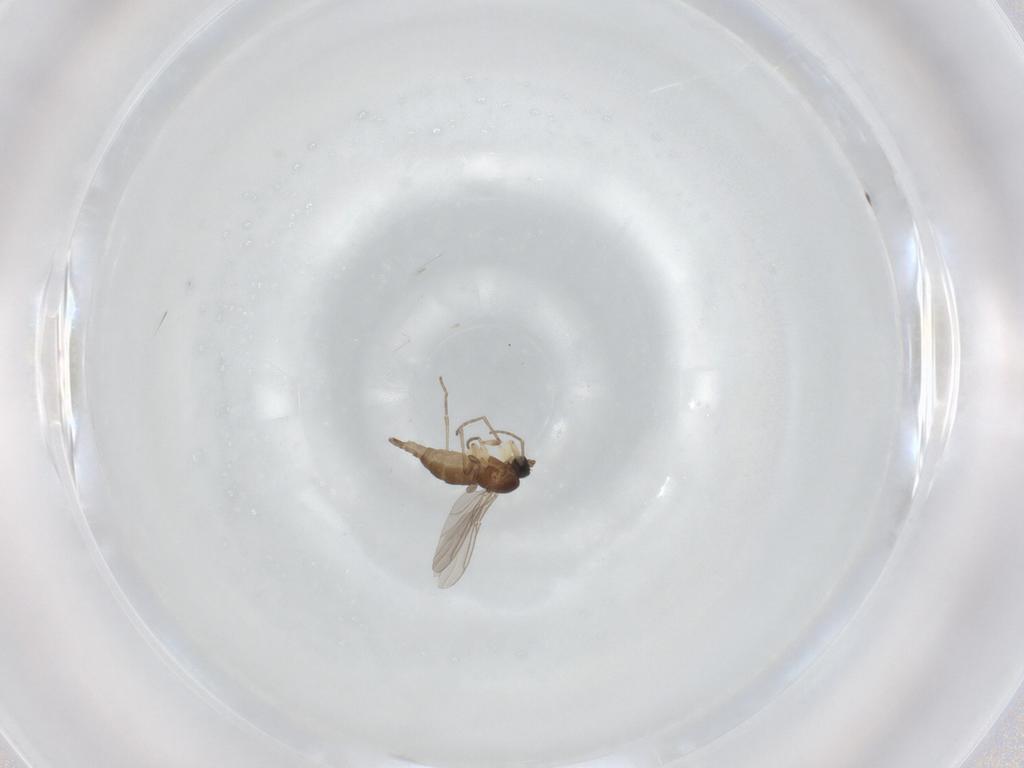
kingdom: Animalia
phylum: Arthropoda
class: Insecta
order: Diptera
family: Sciaridae
